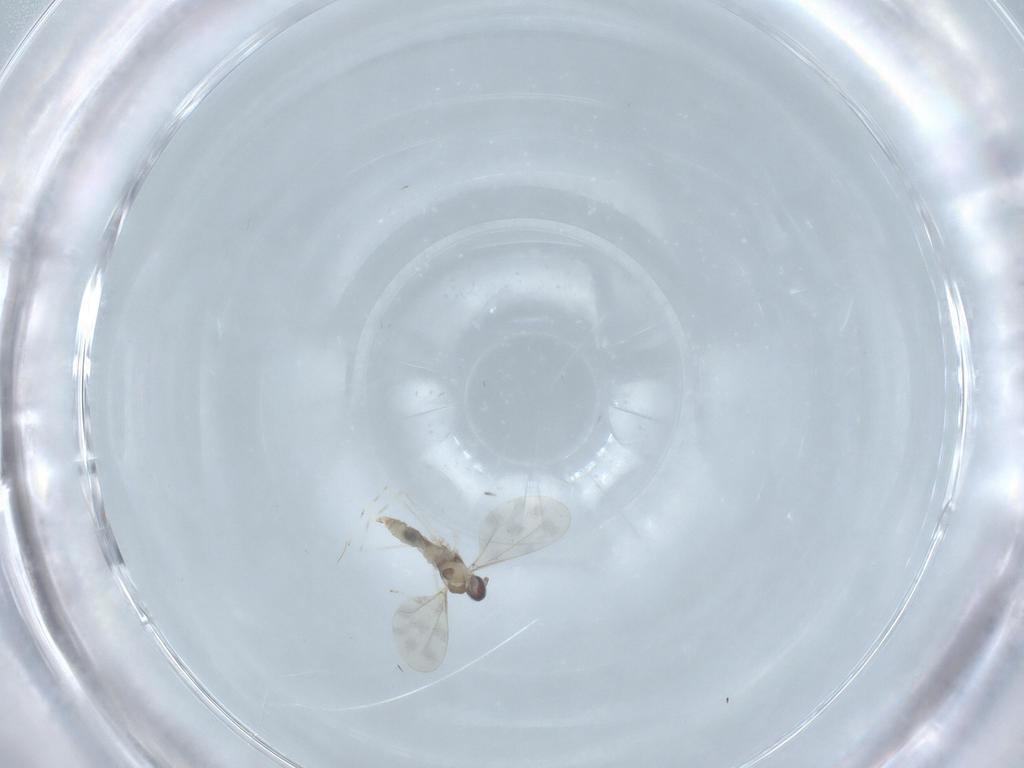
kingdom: Animalia
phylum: Arthropoda
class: Insecta
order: Diptera
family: Cecidomyiidae
